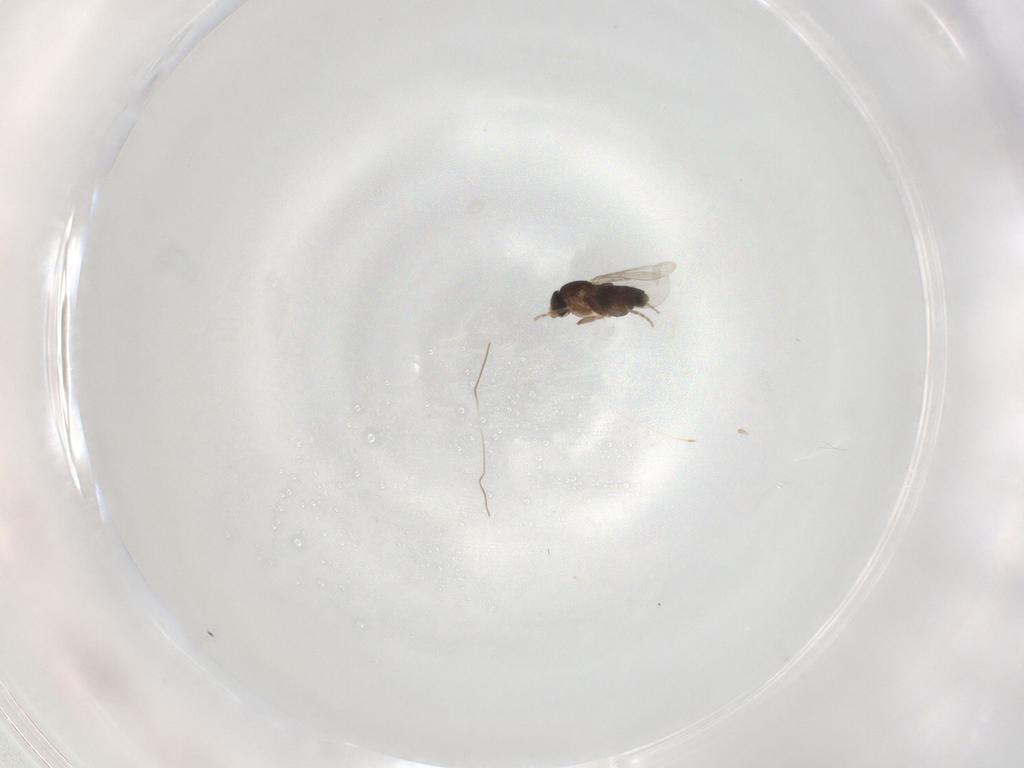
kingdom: Animalia
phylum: Arthropoda
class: Insecta
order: Diptera
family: Phoridae
